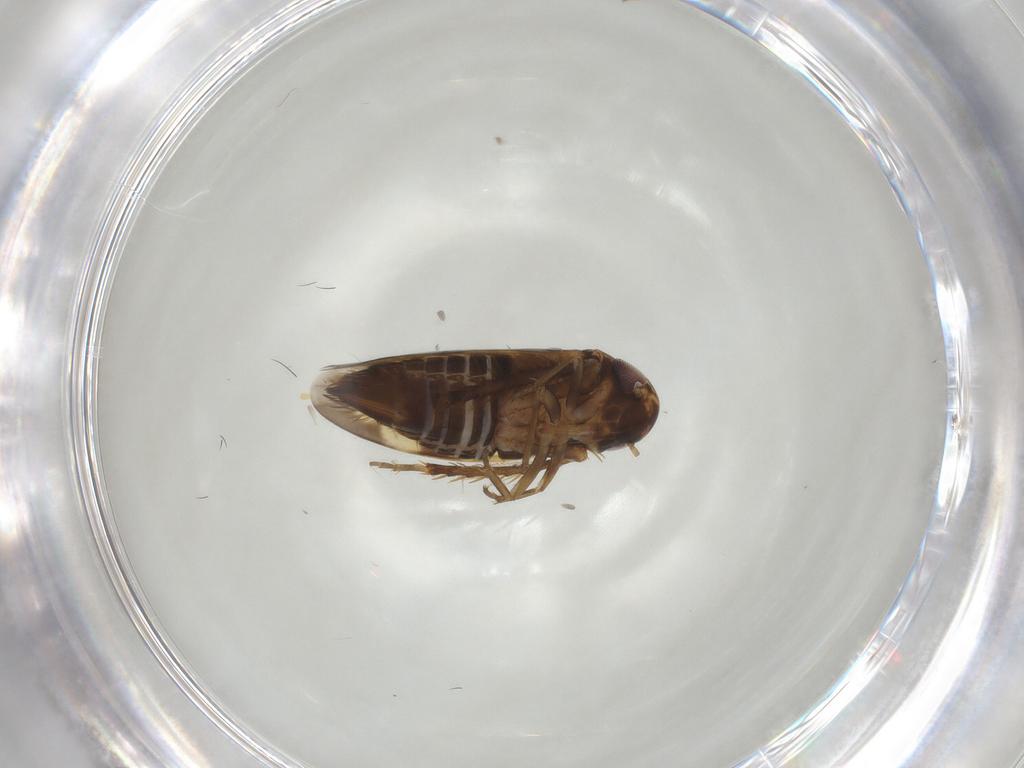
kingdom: Animalia
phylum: Arthropoda
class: Insecta
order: Hemiptera
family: Cicadellidae
